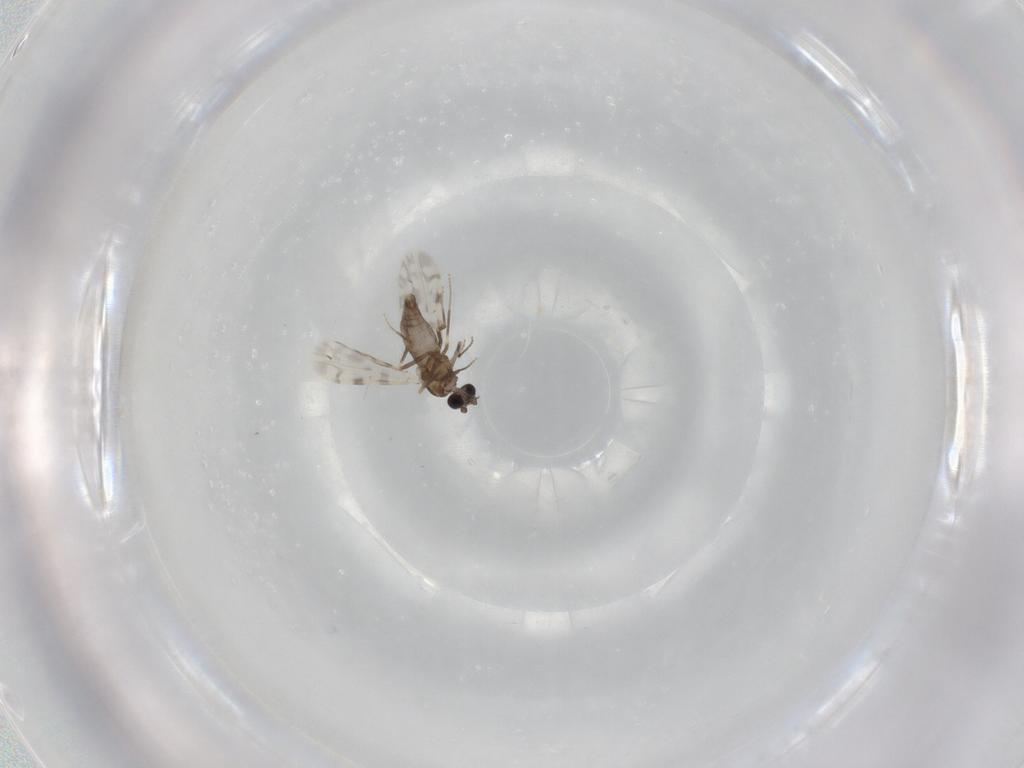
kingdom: Animalia
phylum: Arthropoda
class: Insecta
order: Diptera
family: Ceratopogonidae
